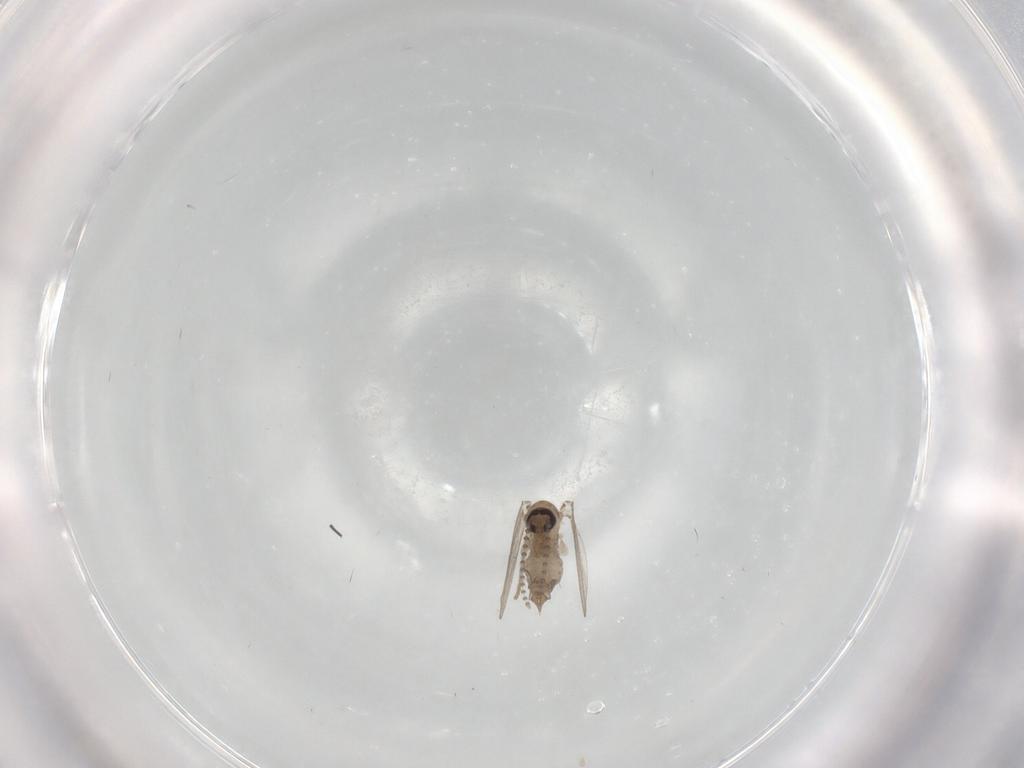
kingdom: Animalia
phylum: Arthropoda
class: Insecta
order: Diptera
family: Psychodidae
